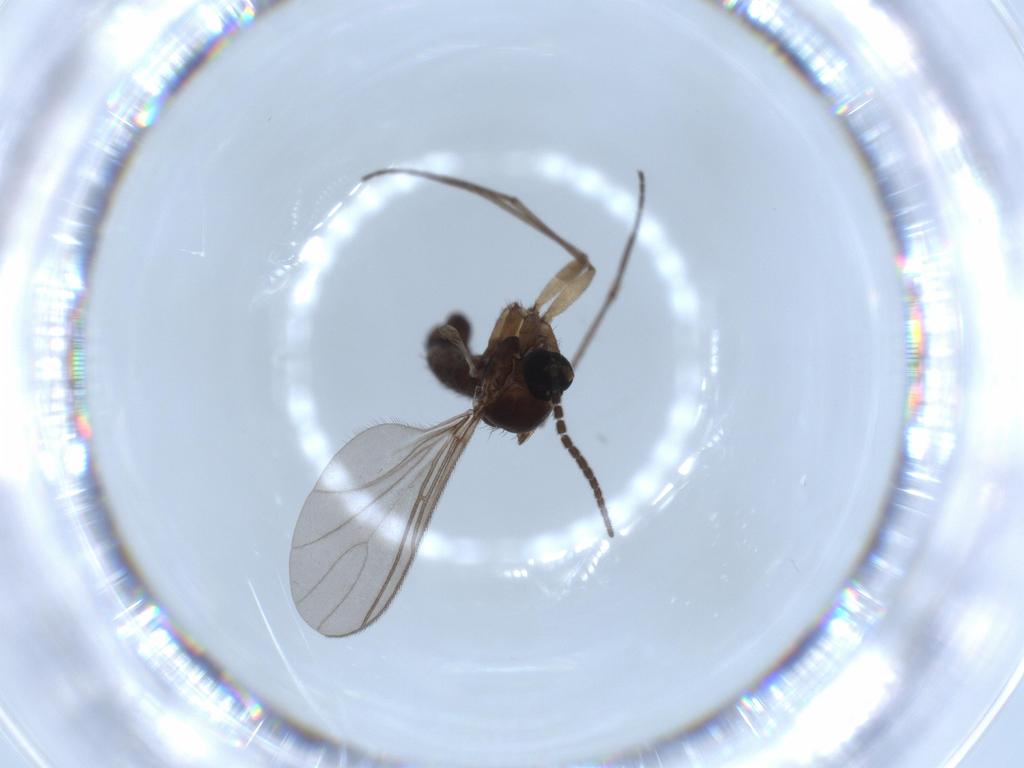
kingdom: Animalia
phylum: Arthropoda
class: Insecta
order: Diptera
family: Sciaridae
